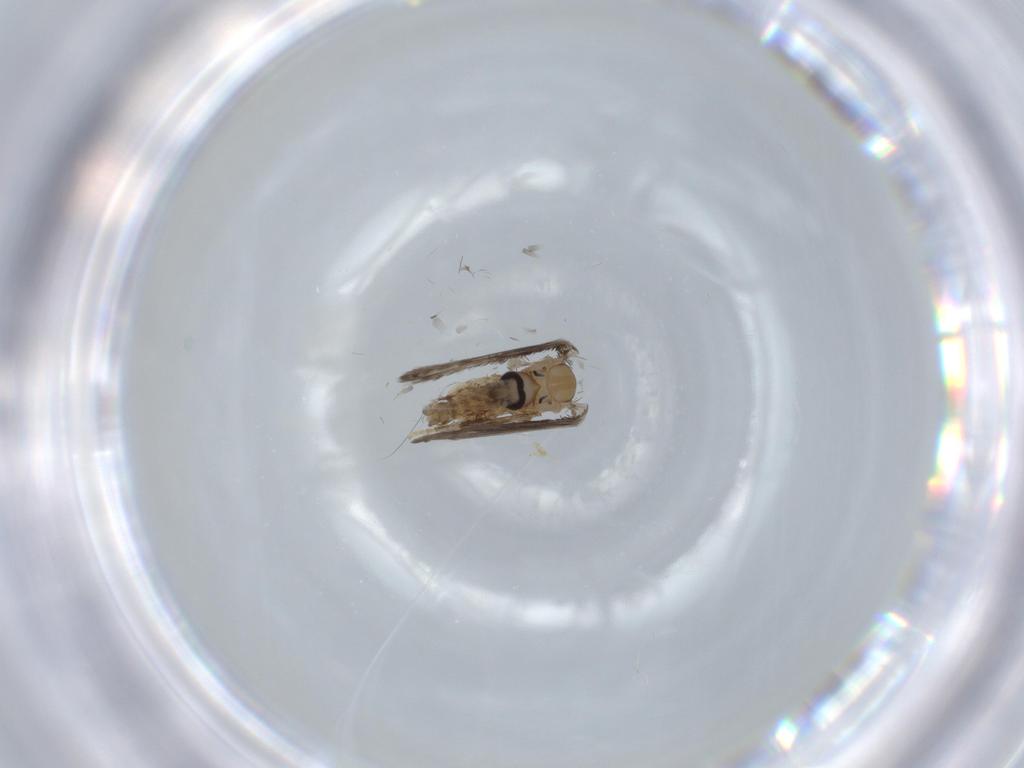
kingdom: Animalia
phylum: Arthropoda
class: Insecta
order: Diptera
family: Psychodidae
